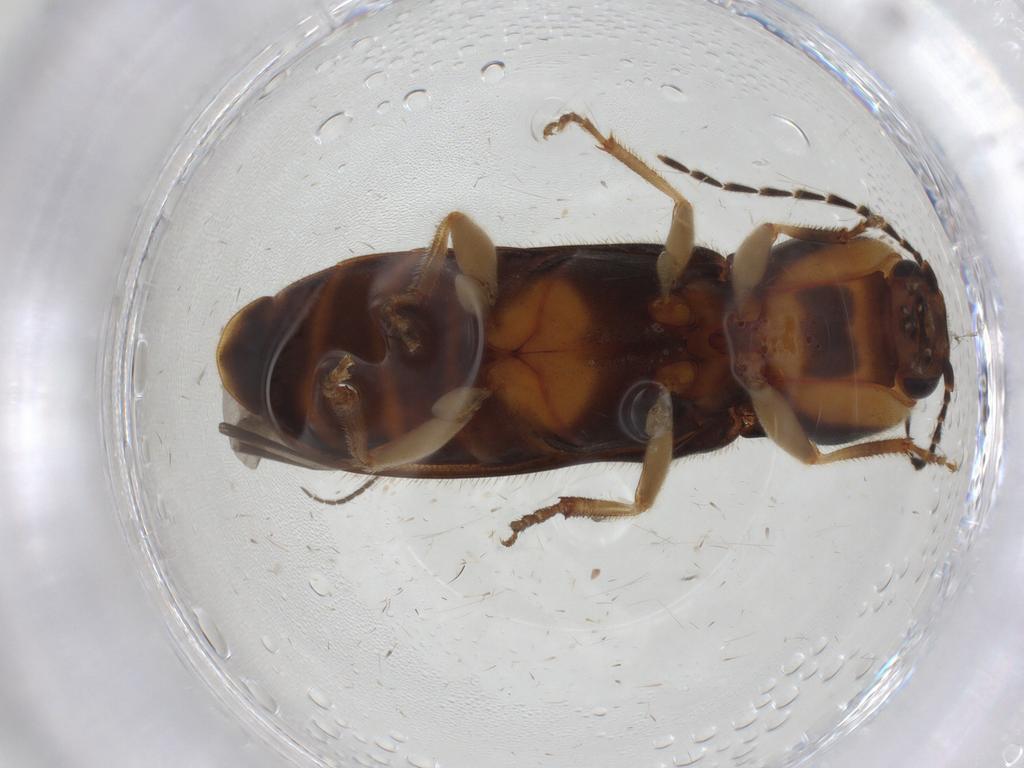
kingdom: Animalia
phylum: Arthropoda
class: Insecta
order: Coleoptera
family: Elateridae
